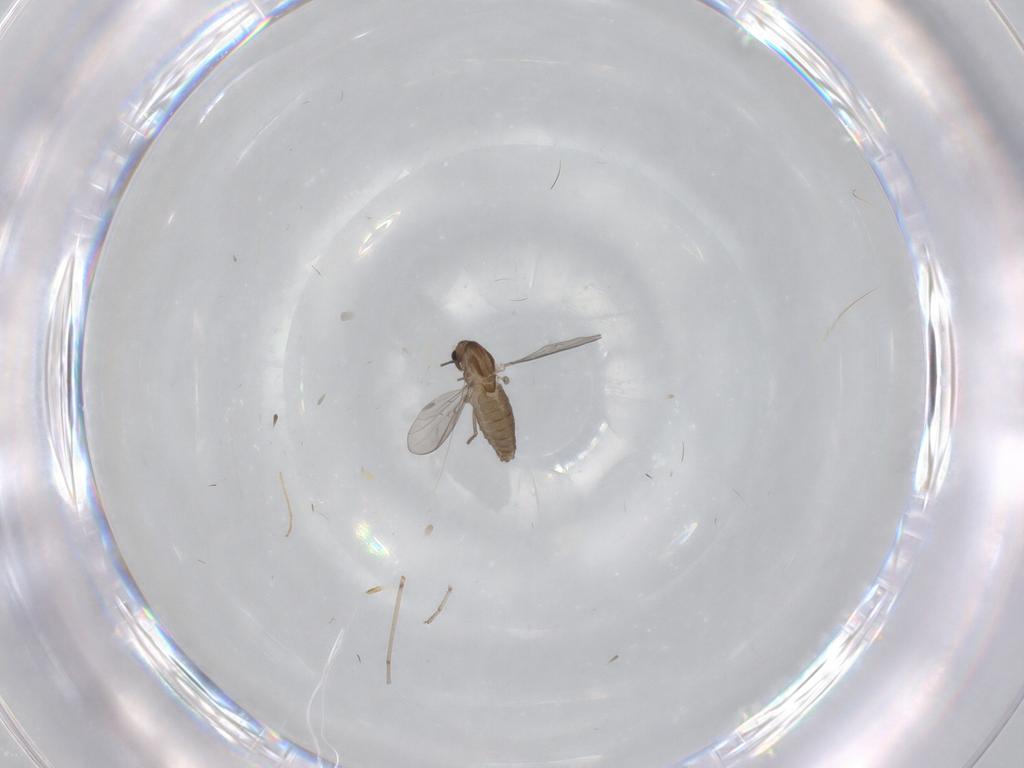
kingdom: Animalia
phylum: Arthropoda
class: Insecta
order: Diptera
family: Chironomidae
